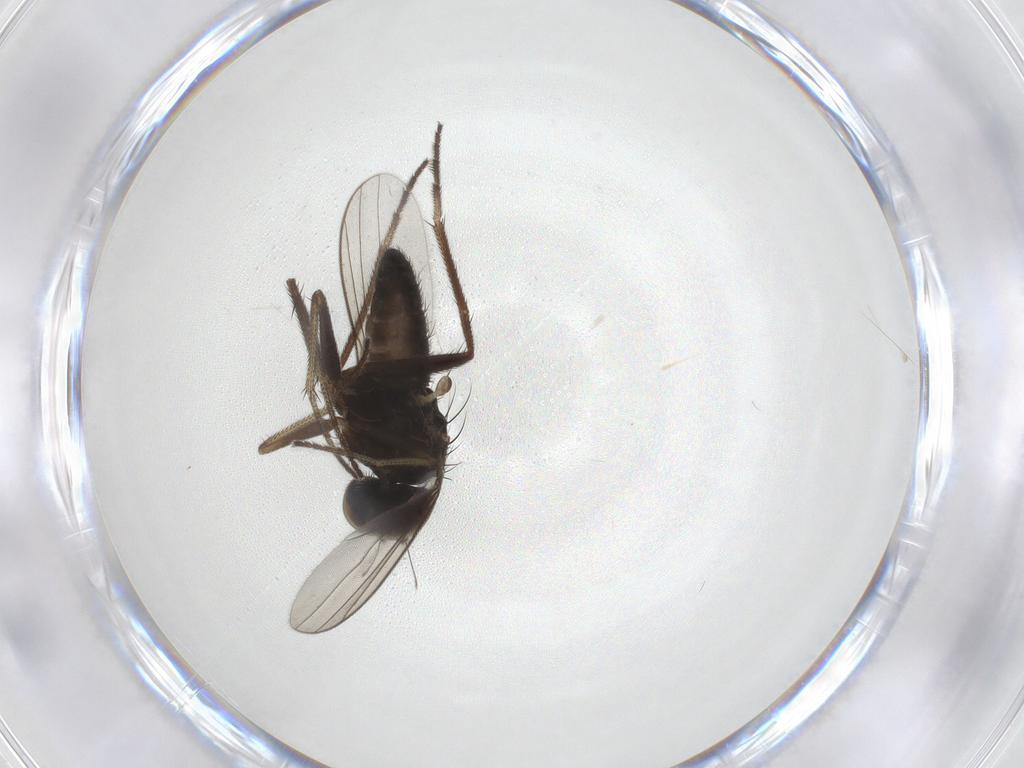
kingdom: Animalia
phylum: Arthropoda
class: Insecta
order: Diptera
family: Dolichopodidae
